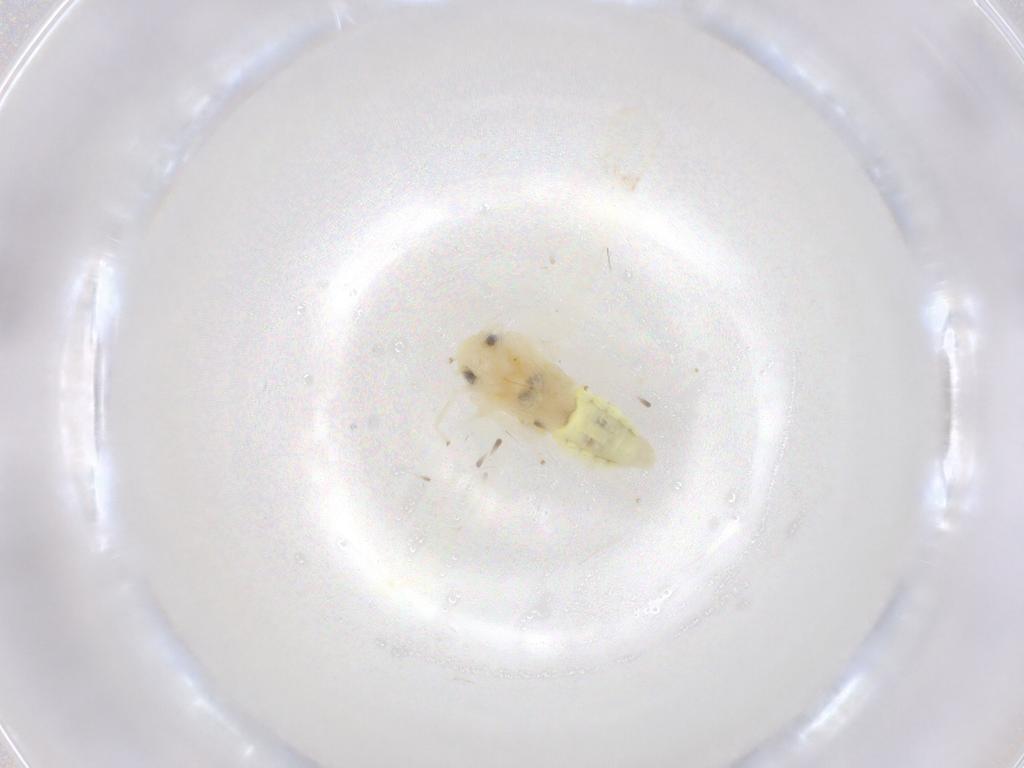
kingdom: Animalia
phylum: Arthropoda
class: Insecta
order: Hemiptera
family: Cicadellidae
